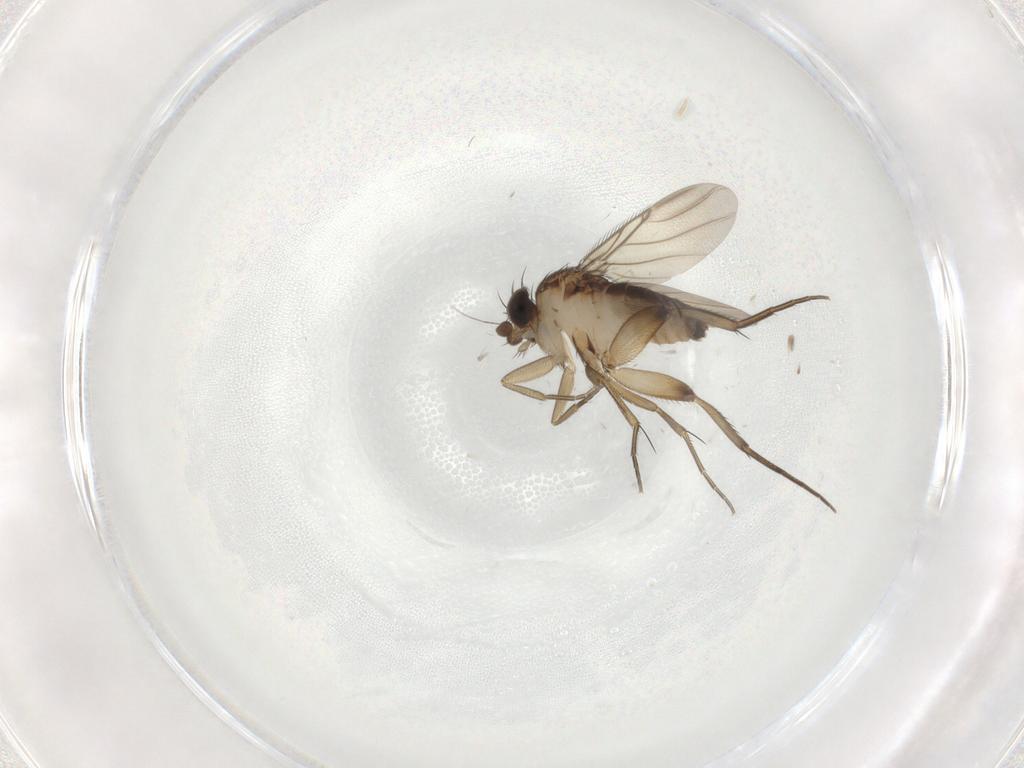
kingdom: Animalia
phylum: Arthropoda
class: Insecta
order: Diptera
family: Phoridae
